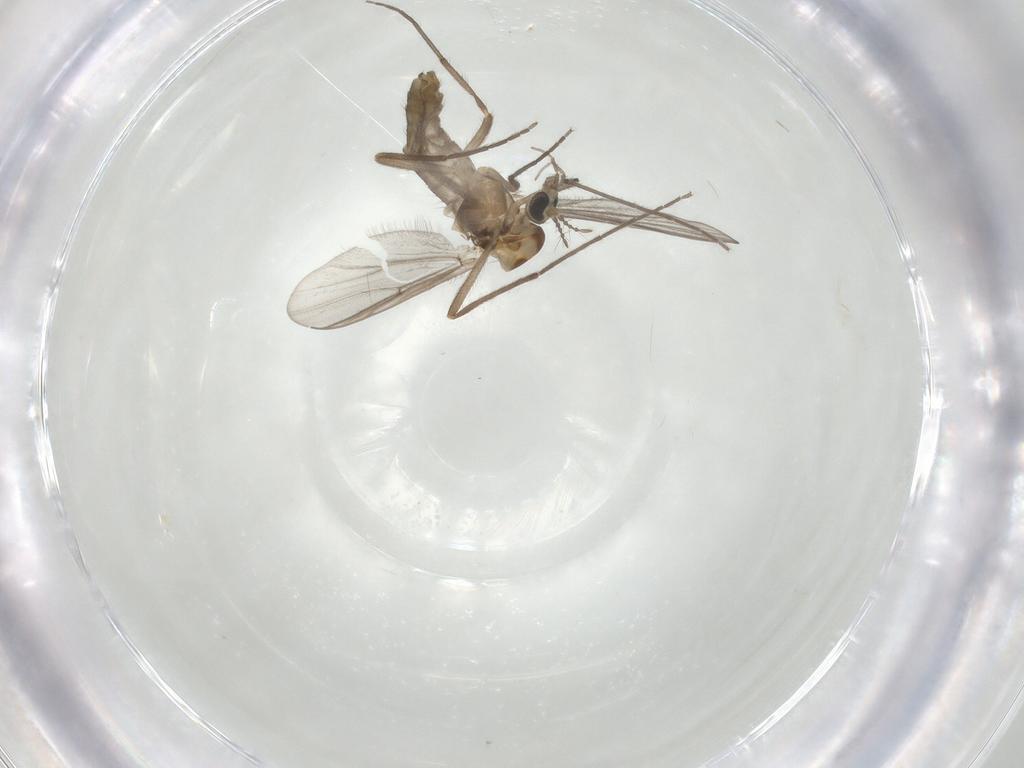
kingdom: Animalia
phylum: Arthropoda
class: Insecta
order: Diptera
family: Chironomidae
